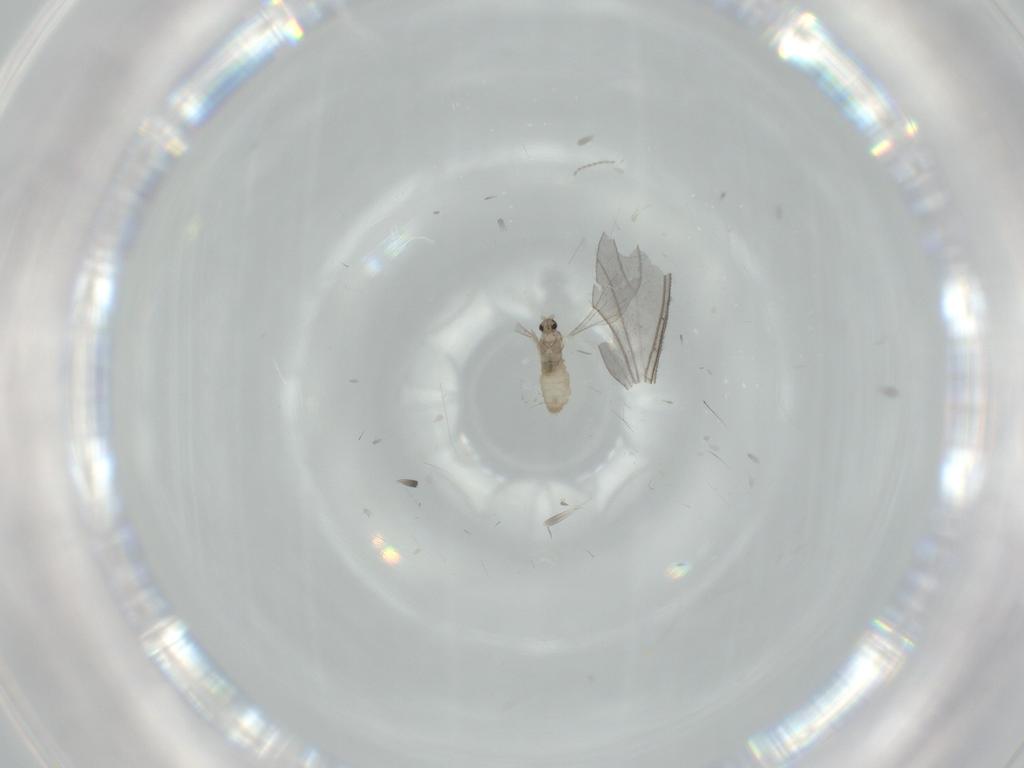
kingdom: Animalia
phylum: Arthropoda
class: Insecta
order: Diptera
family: Cecidomyiidae
